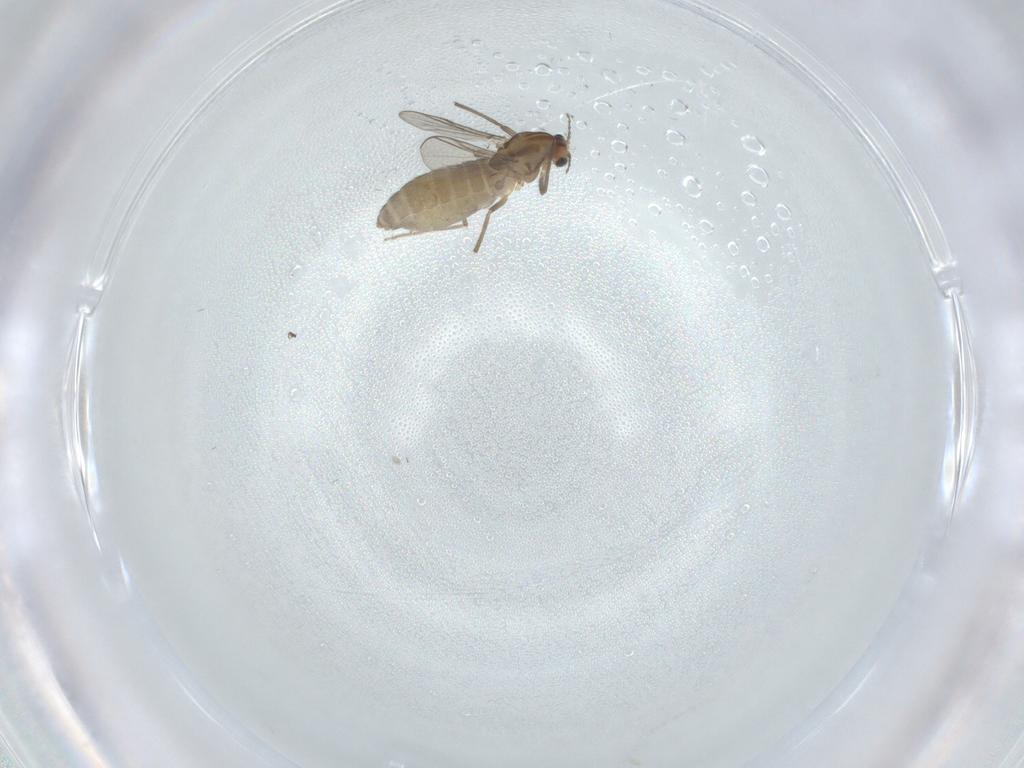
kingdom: Animalia
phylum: Arthropoda
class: Insecta
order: Diptera
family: Chironomidae
